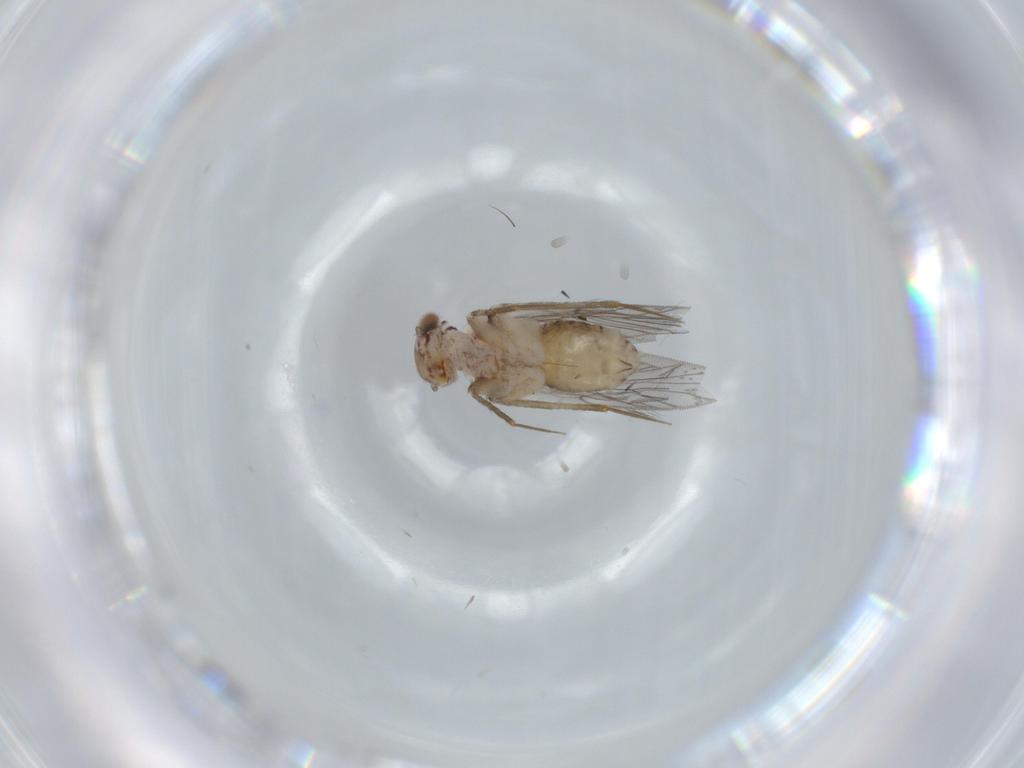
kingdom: Animalia
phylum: Arthropoda
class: Insecta
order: Psocodea
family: Lepidopsocidae
